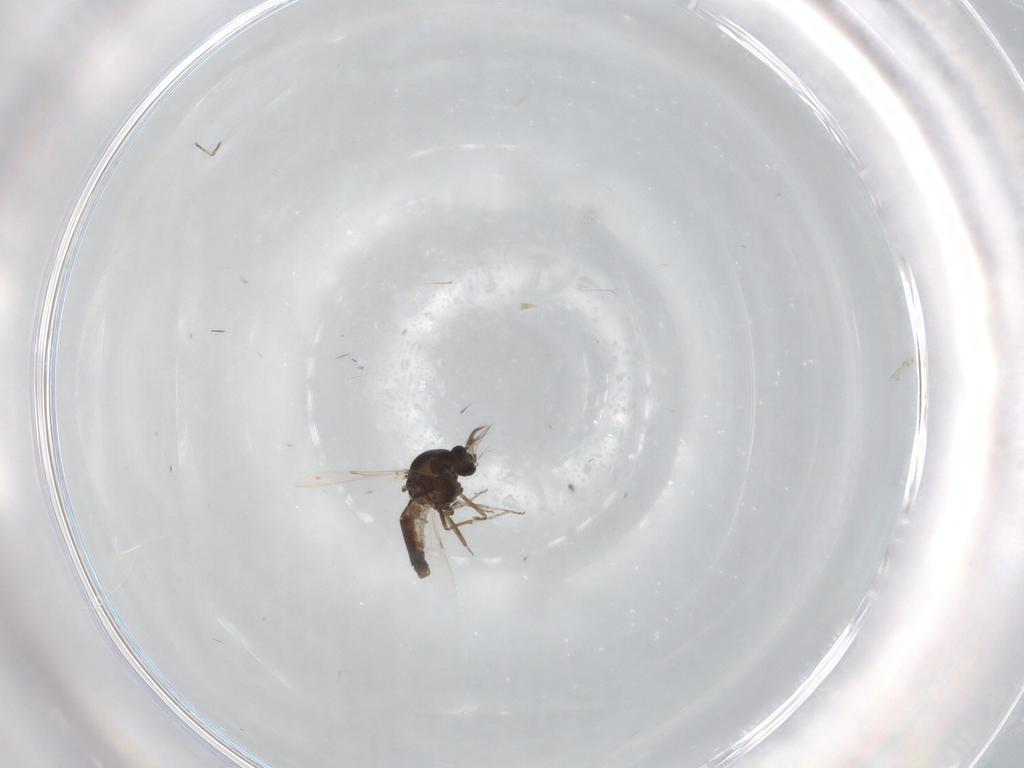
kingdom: Animalia
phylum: Arthropoda
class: Insecta
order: Diptera
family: Ceratopogonidae
